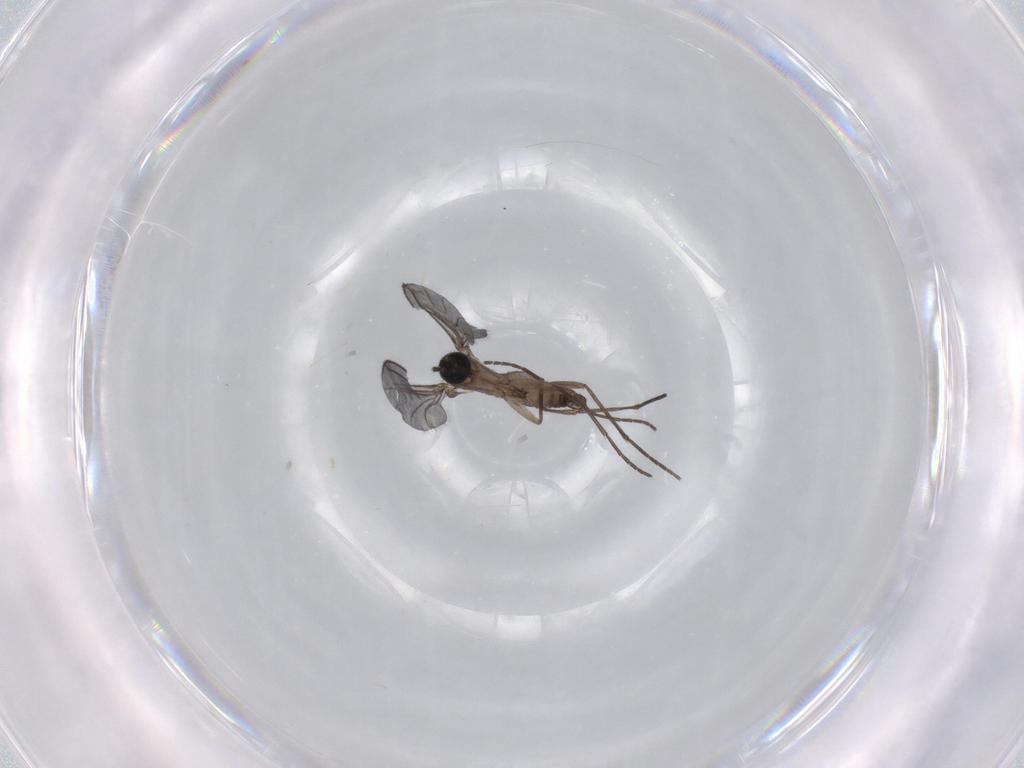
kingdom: Animalia
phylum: Arthropoda
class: Insecta
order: Diptera
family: Sciaridae
